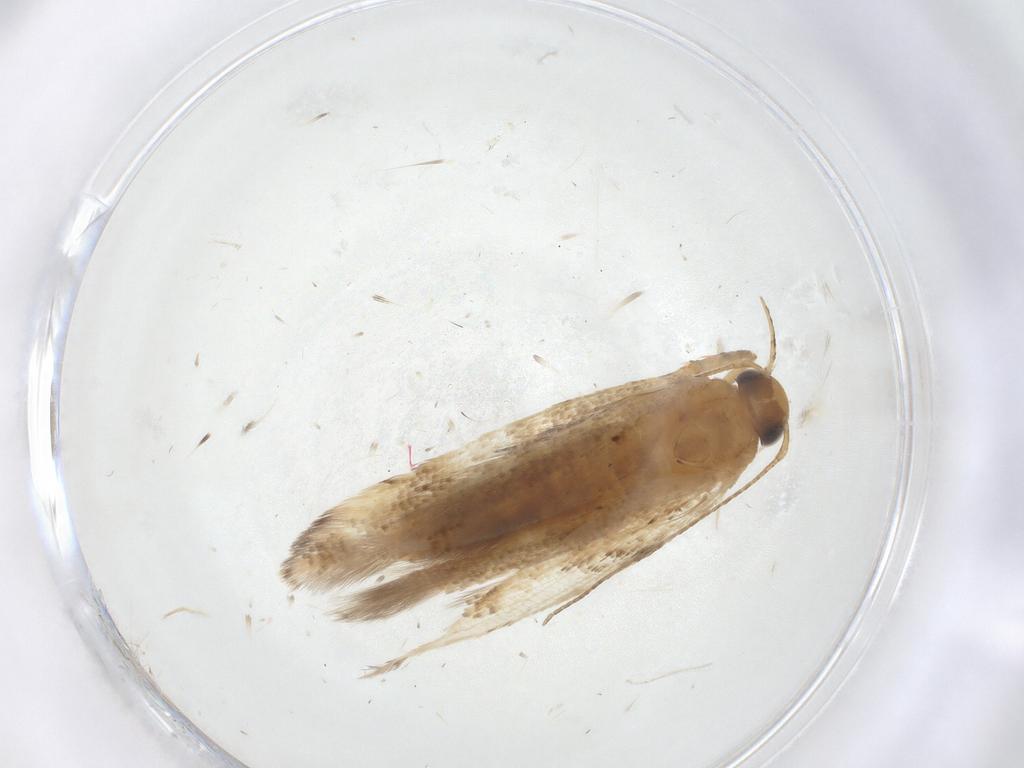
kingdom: Animalia
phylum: Arthropoda
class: Insecta
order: Lepidoptera
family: Gelechiidae
